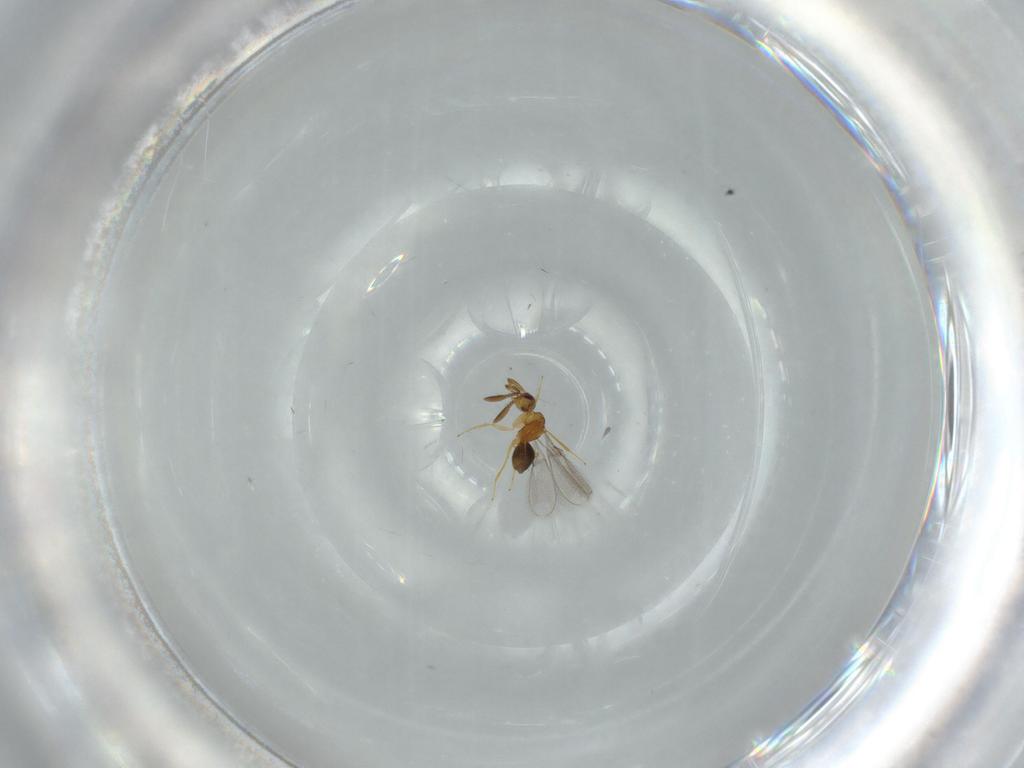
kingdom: Animalia
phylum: Arthropoda
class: Insecta
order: Hymenoptera
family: Mymaridae
